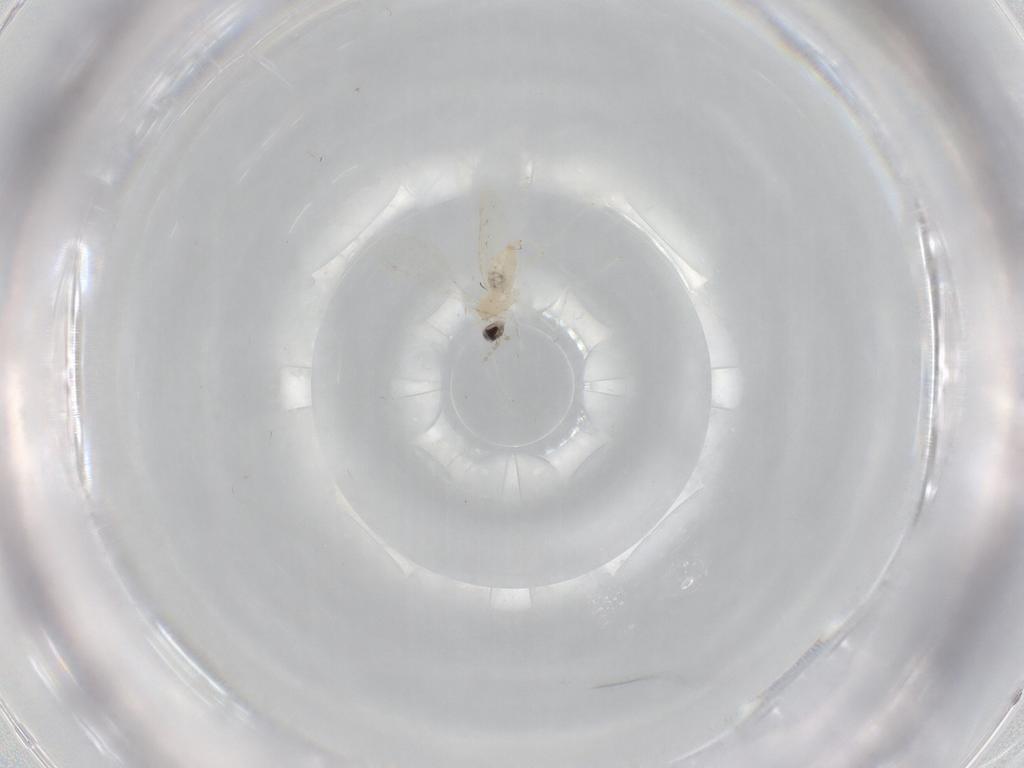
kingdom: Animalia
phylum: Arthropoda
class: Insecta
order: Diptera
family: Cecidomyiidae
